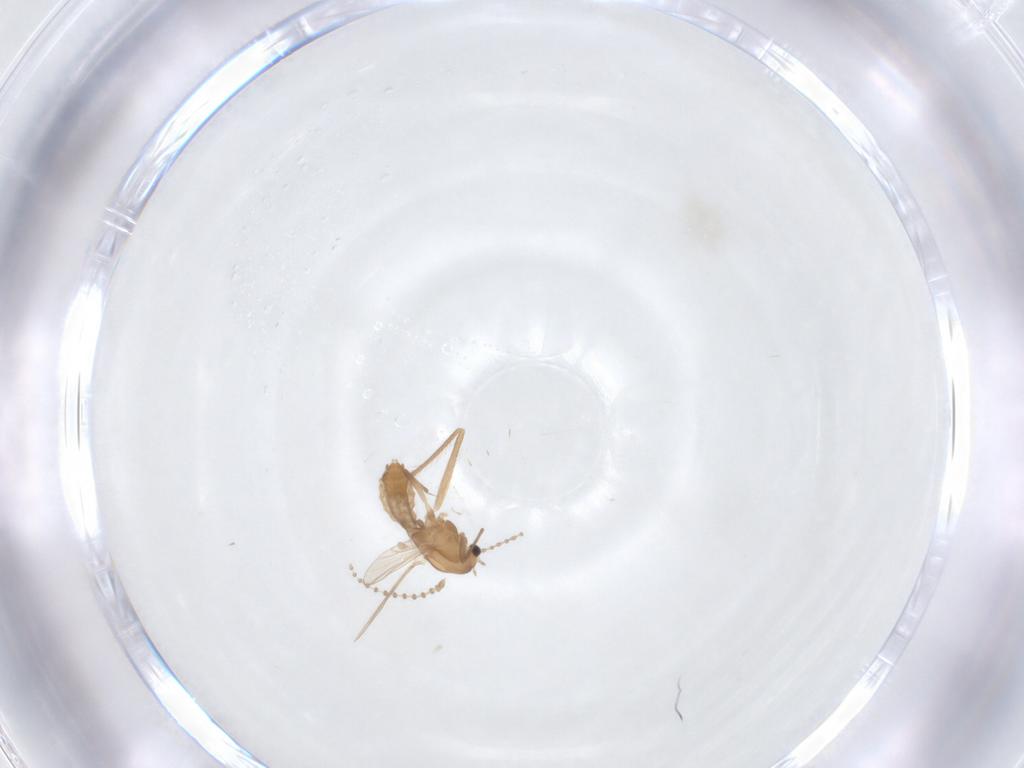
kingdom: Animalia
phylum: Arthropoda
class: Insecta
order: Diptera
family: Chironomidae
